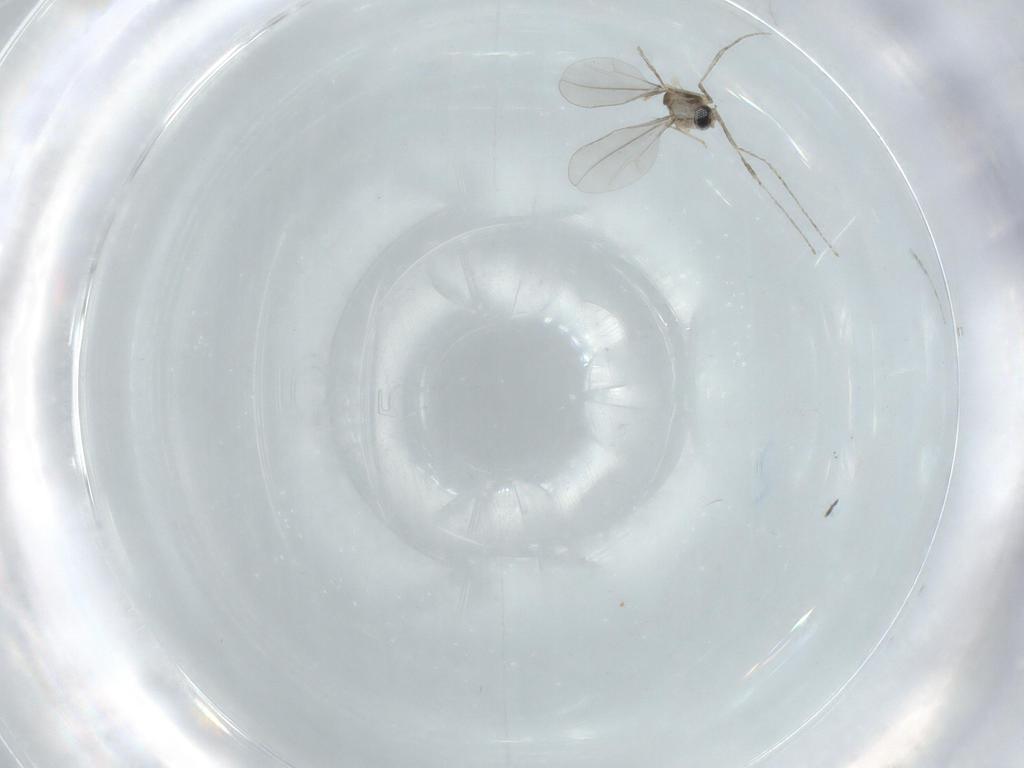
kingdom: Animalia
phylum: Arthropoda
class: Insecta
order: Diptera
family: Cecidomyiidae
